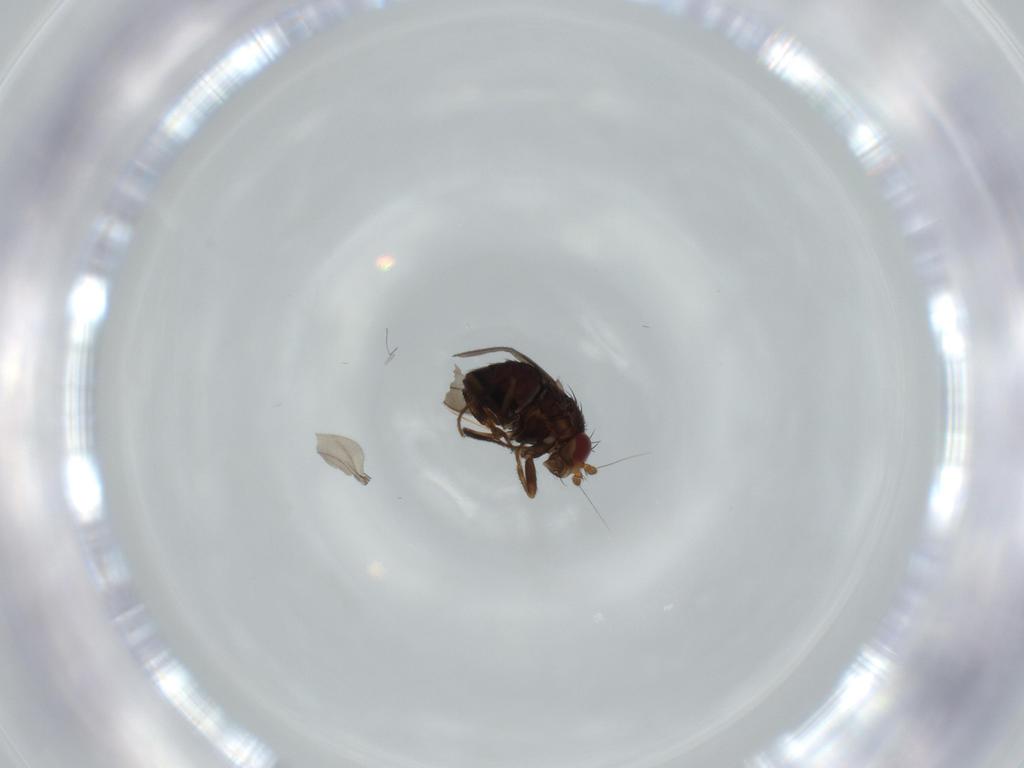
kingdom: Animalia
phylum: Arthropoda
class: Insecta
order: Diptera
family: Sphaeroceridae
